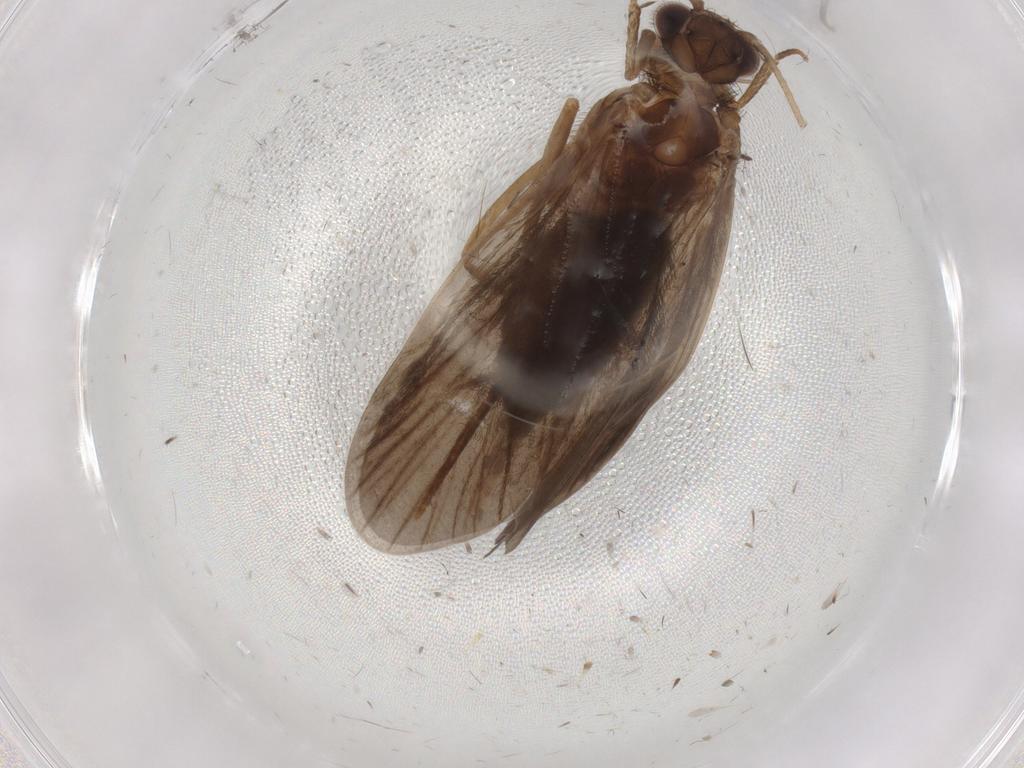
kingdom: Animalia
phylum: Arthropoda
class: Insecta
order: Trichoptera
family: Philopotamidae
